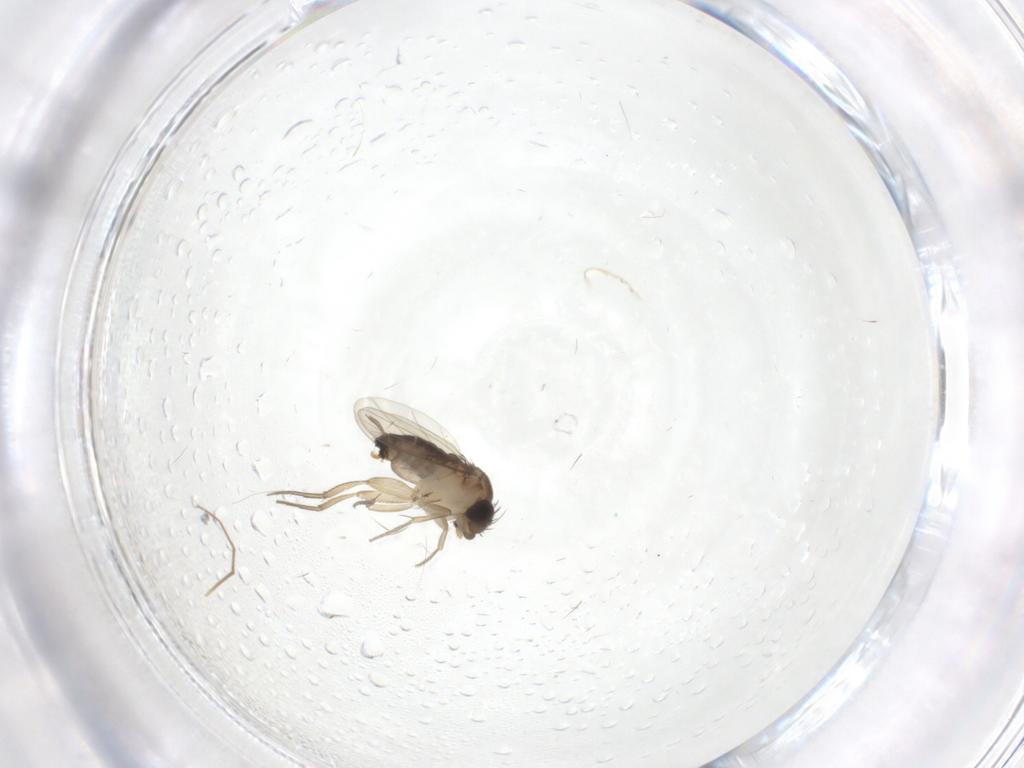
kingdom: Animalia
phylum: Arthropoda
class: Insecta
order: Diptera
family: Chironomidae
